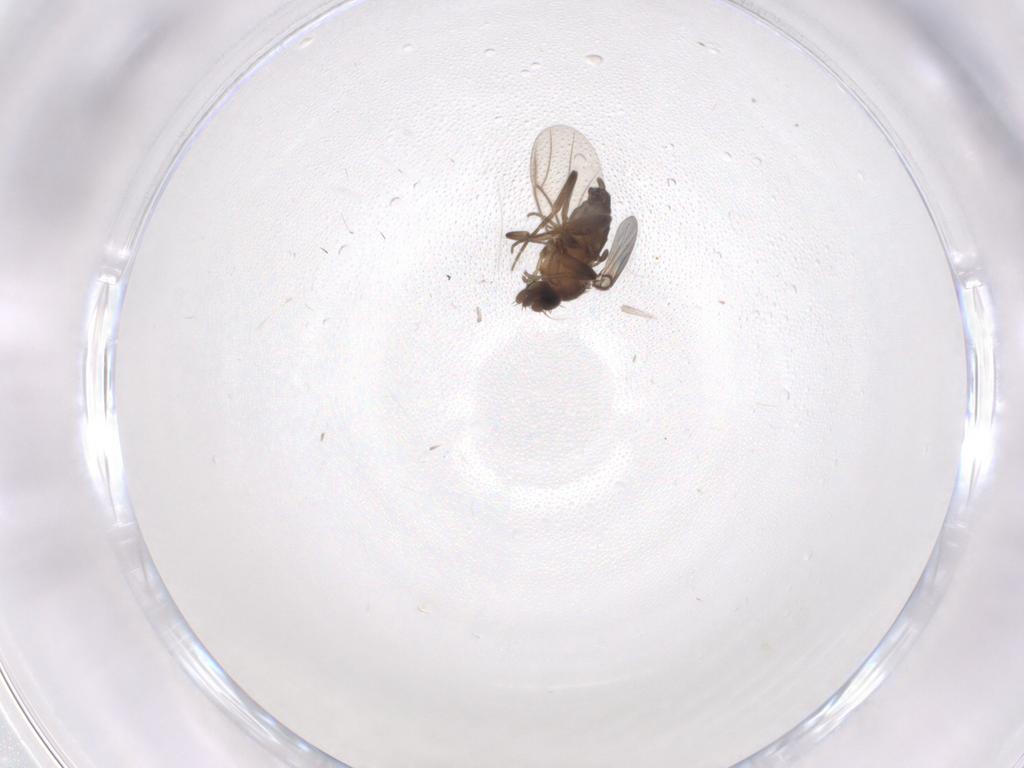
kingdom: Animalia
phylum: Arthropoda
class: Insecta
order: Diptera
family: Phoridae
